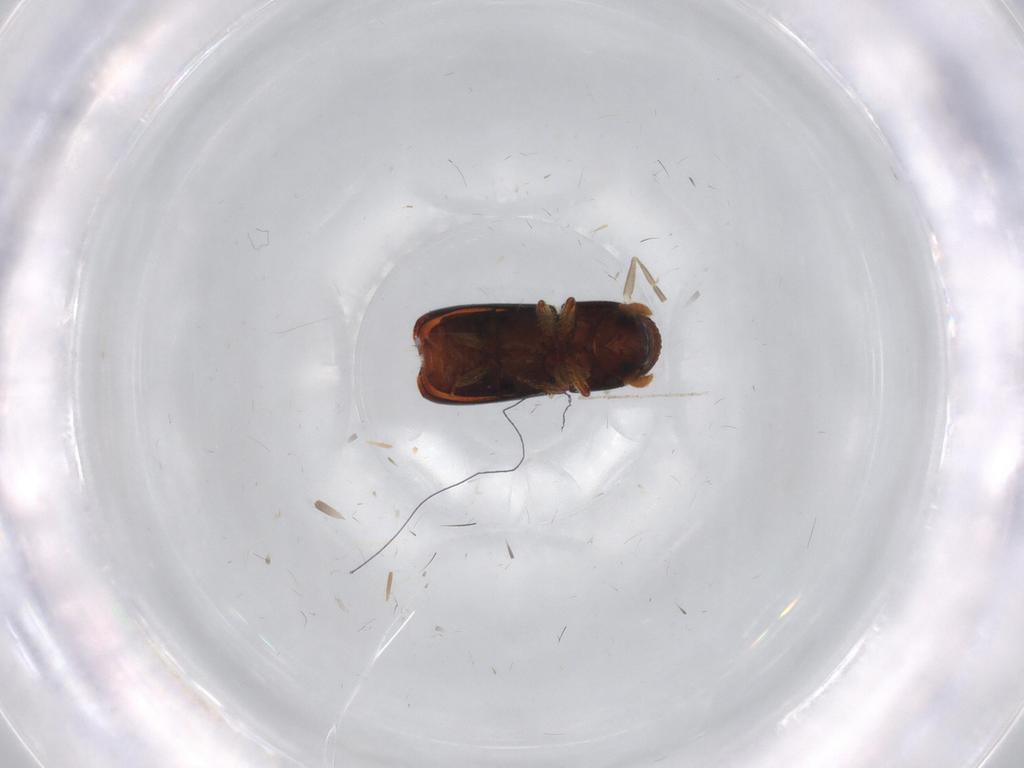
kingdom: Animalia
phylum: Arthropoda
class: Insecta
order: Coleoptera
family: Curculionidae
